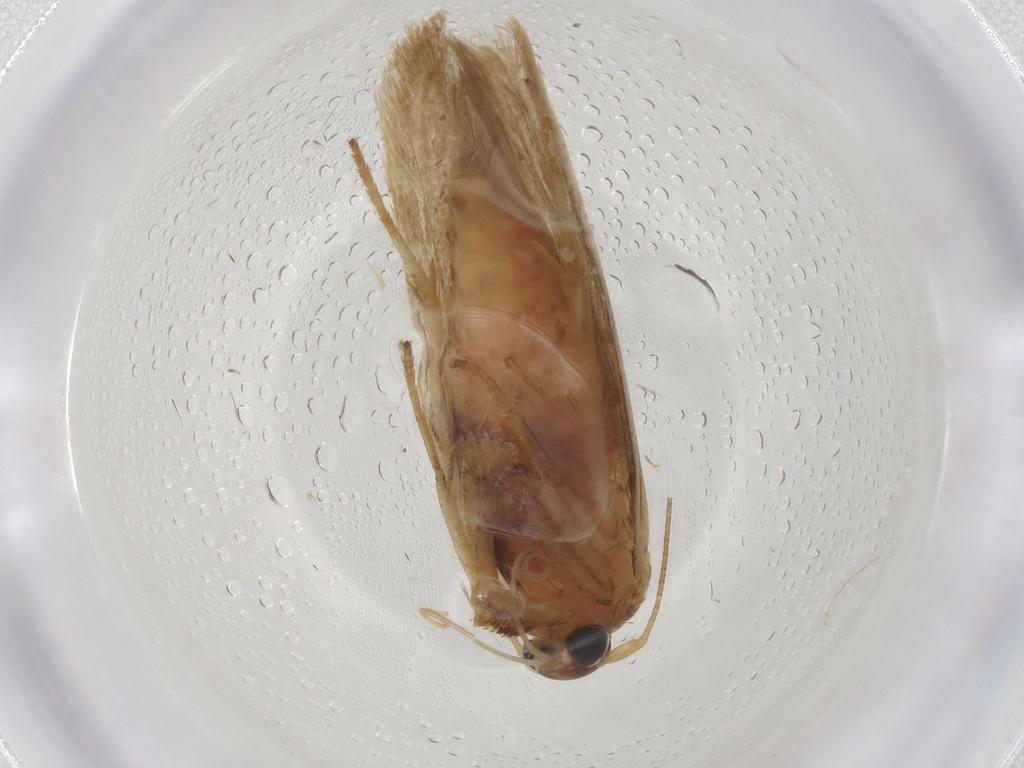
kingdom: Animalia
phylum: Arthropoda
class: Insecta
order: Lepidoptera
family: Blastobasidae
